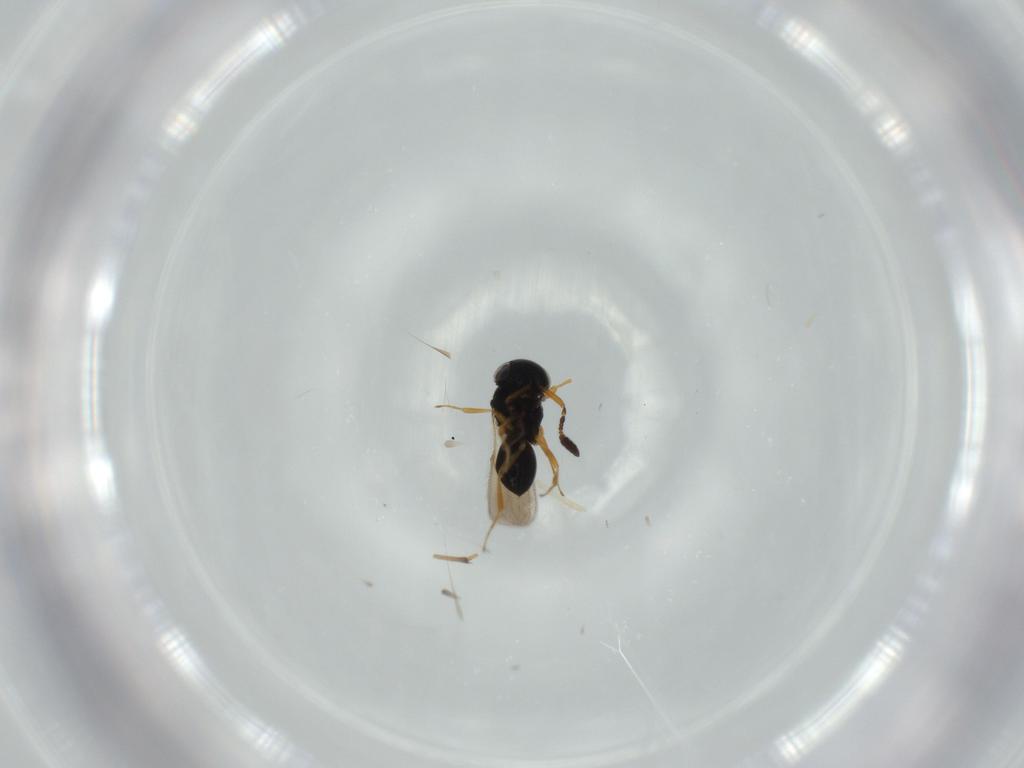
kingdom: Animalia
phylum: Arthropoda
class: Insecta
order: Hymenoptera
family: Scelionidae
